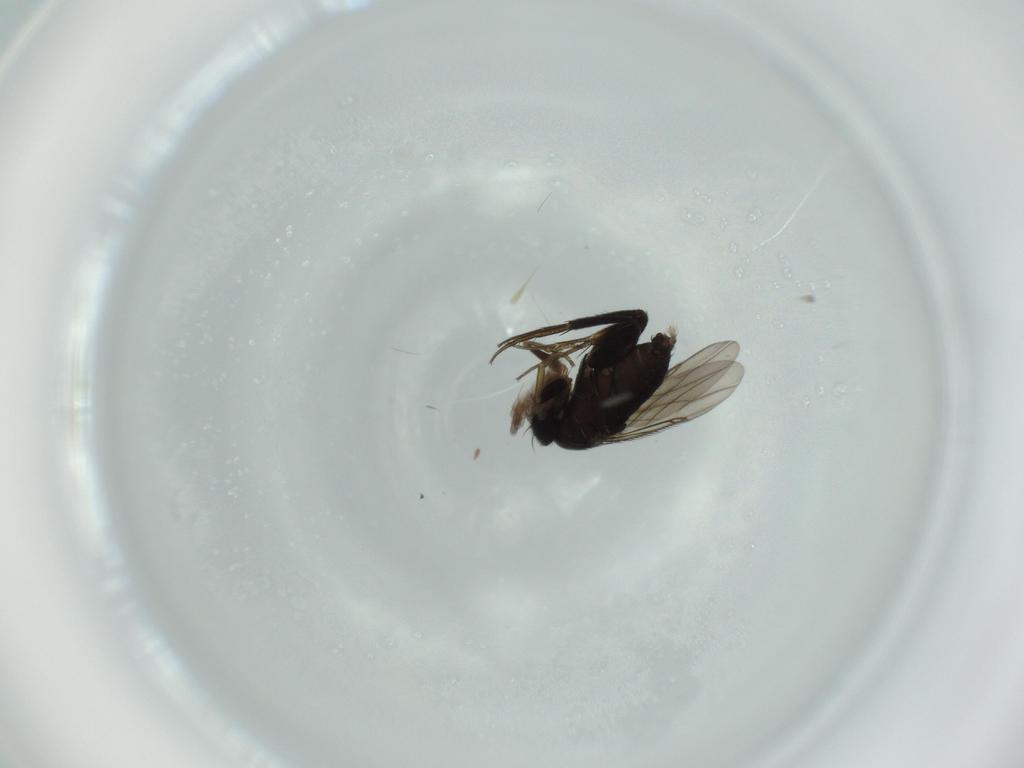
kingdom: Animalia
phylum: Arthropoda
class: Insecta
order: Diptera
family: Phoridae
